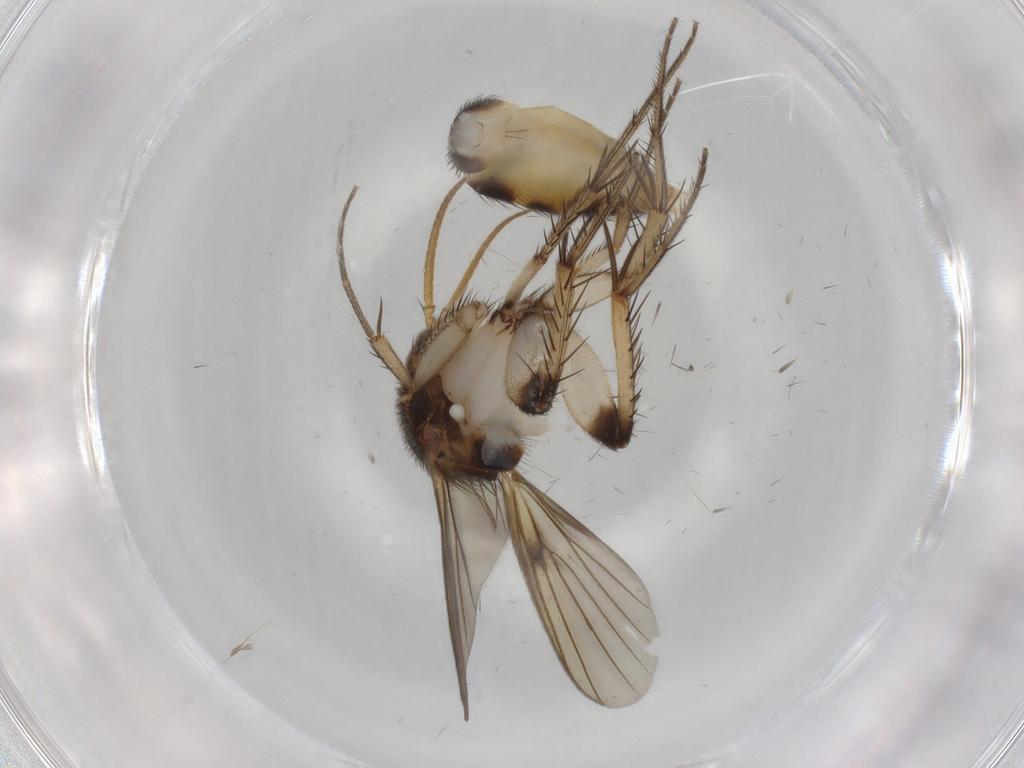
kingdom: Animalia
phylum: Arthropoda
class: Insecta
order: Diptera
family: Mycetophilidae
